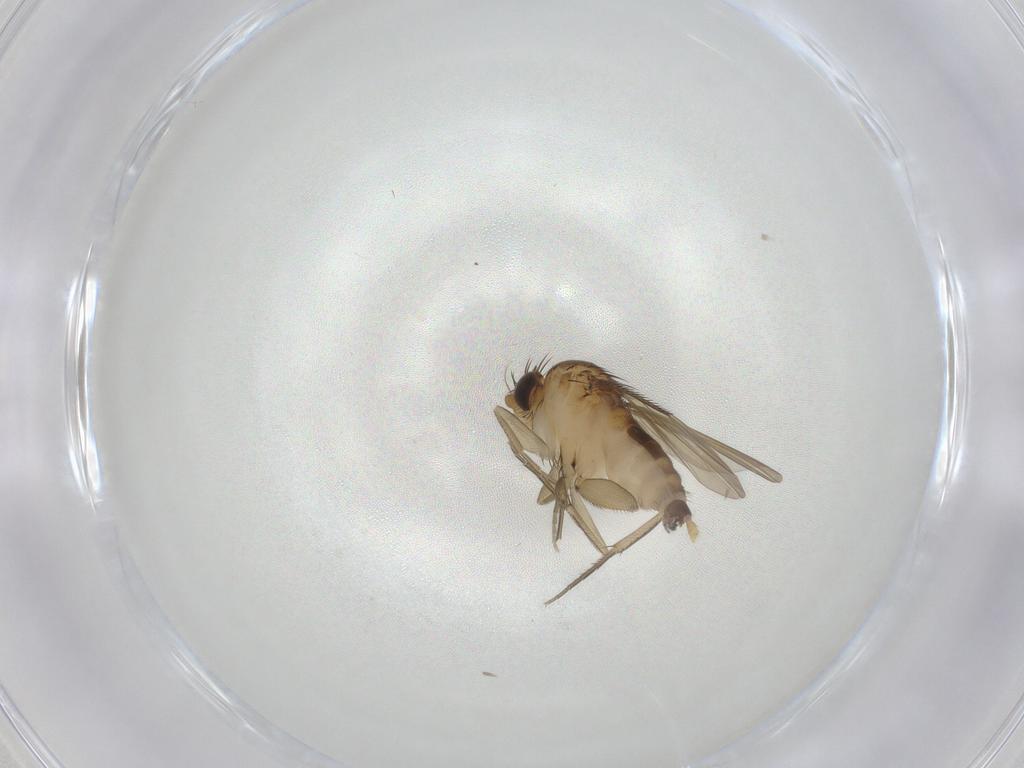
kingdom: Animalia
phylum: Arthropoda
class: Insecta
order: Diptera
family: Phoridae
